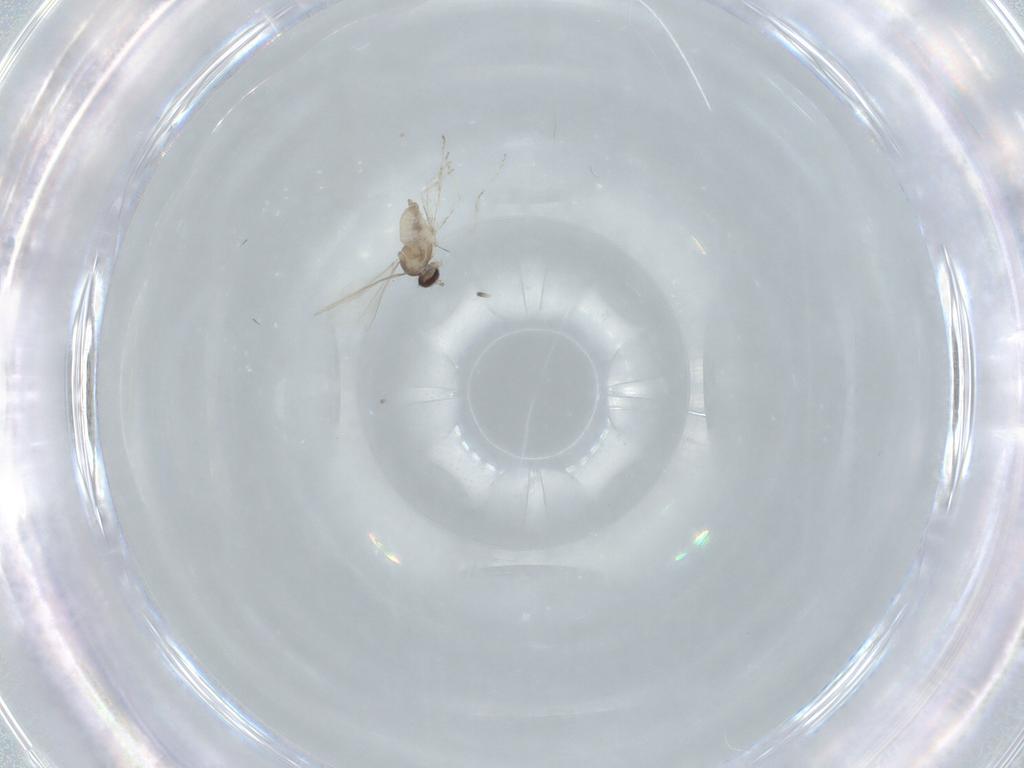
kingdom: Animalia
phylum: Arthropoda
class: Insecta
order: Diptera
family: Cecidomyiidae
